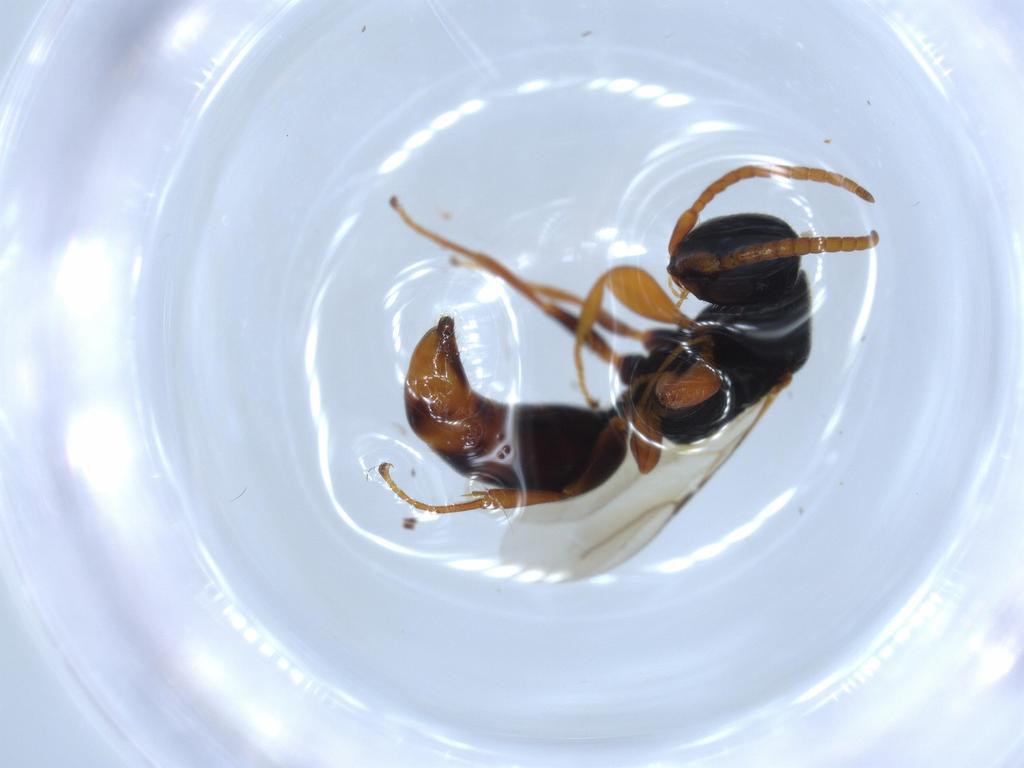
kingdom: Animalia
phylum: Arthropoda
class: Insecta
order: Hymenoptera
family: Bethylidae
